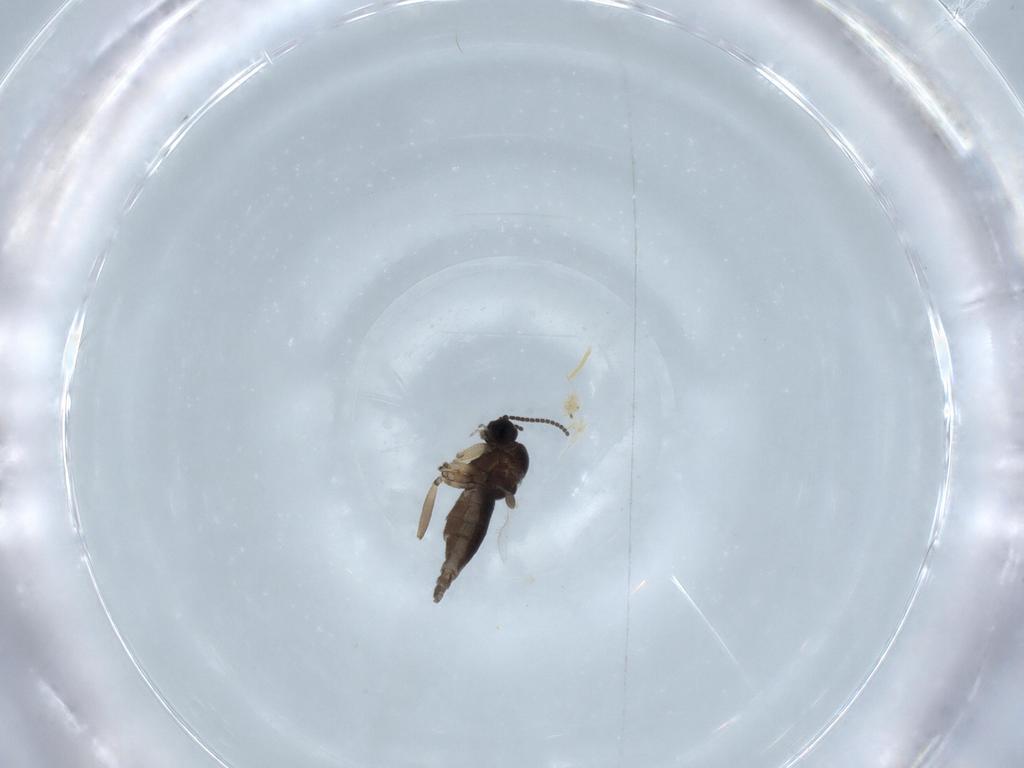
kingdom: Animalia
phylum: Arthropoda
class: Insecta
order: Diptera
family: Sciaridae
